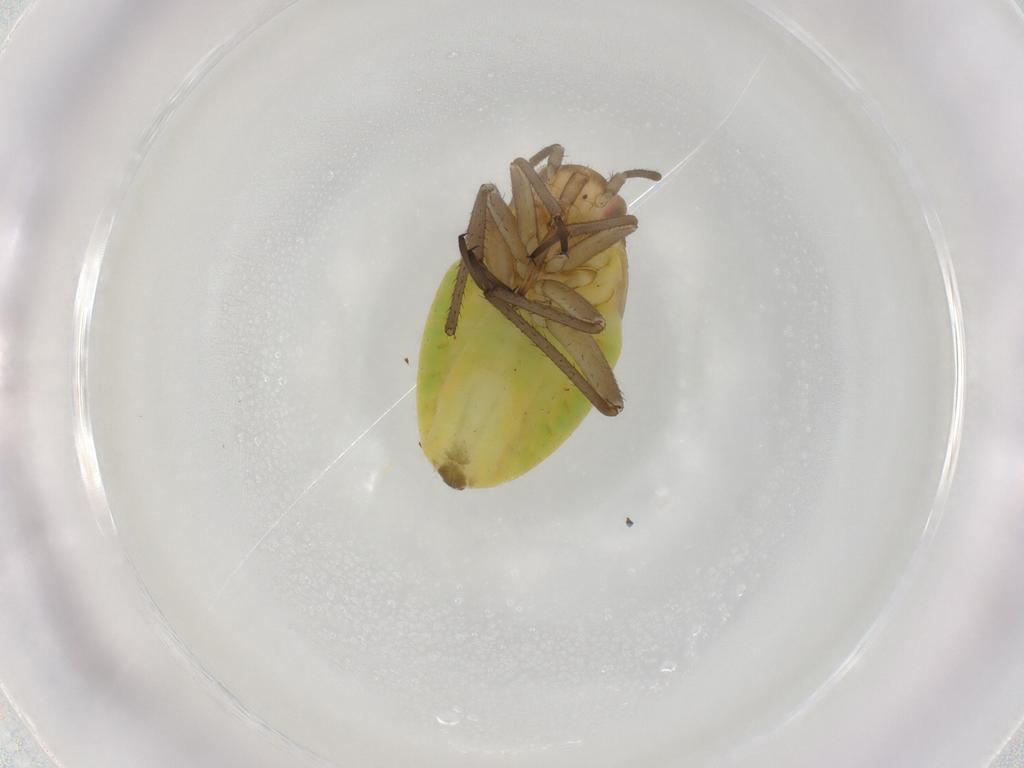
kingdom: Animalia
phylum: Arthropoda
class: Insecta
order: Hemiptera
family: Miridae
